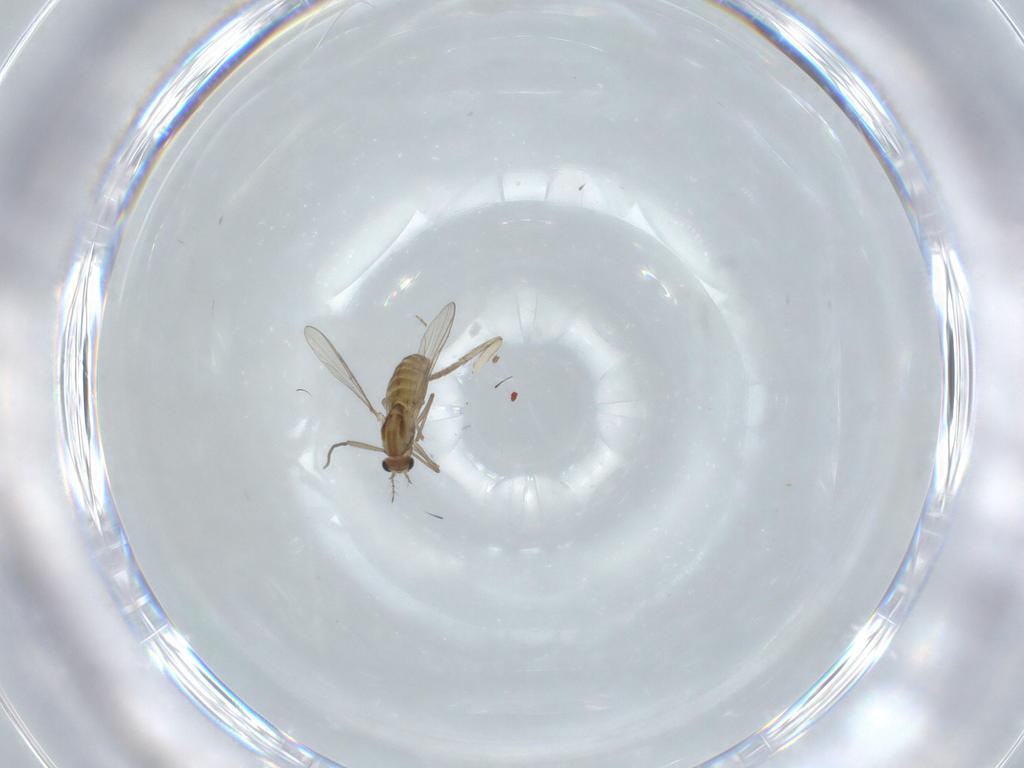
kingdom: Animalia
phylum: Arthropoda
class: Insecta
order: Diptera
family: Chironomidae
